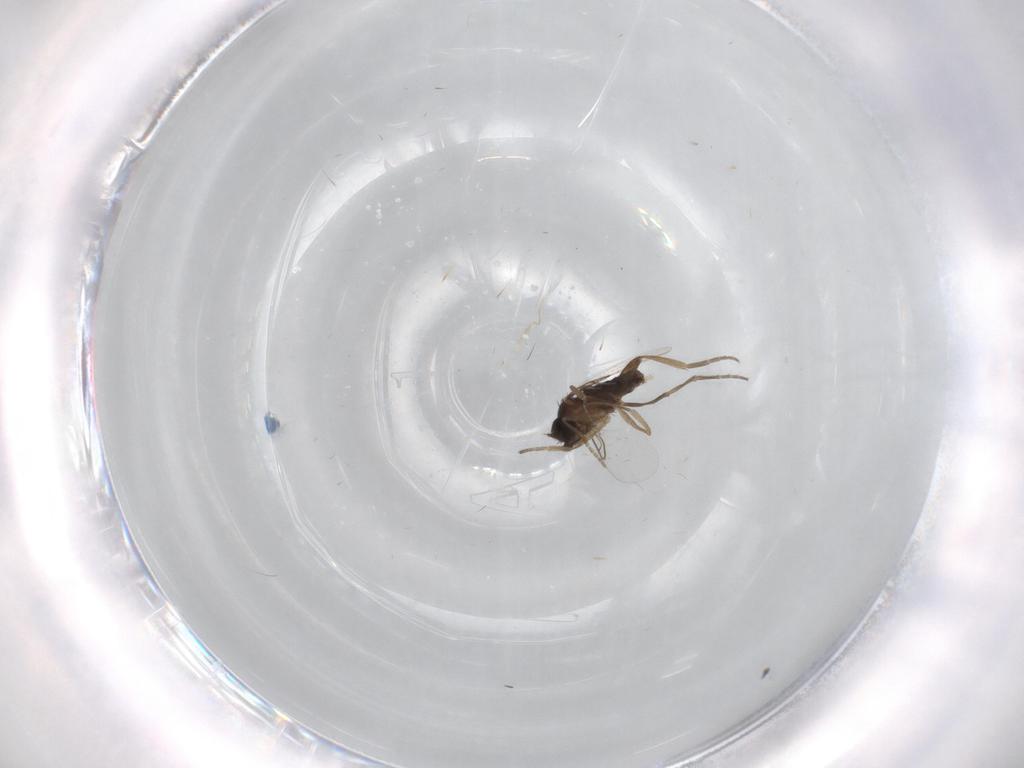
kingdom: Animalia
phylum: Arthropoda
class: Insecta
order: Diptera
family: Phoridae
